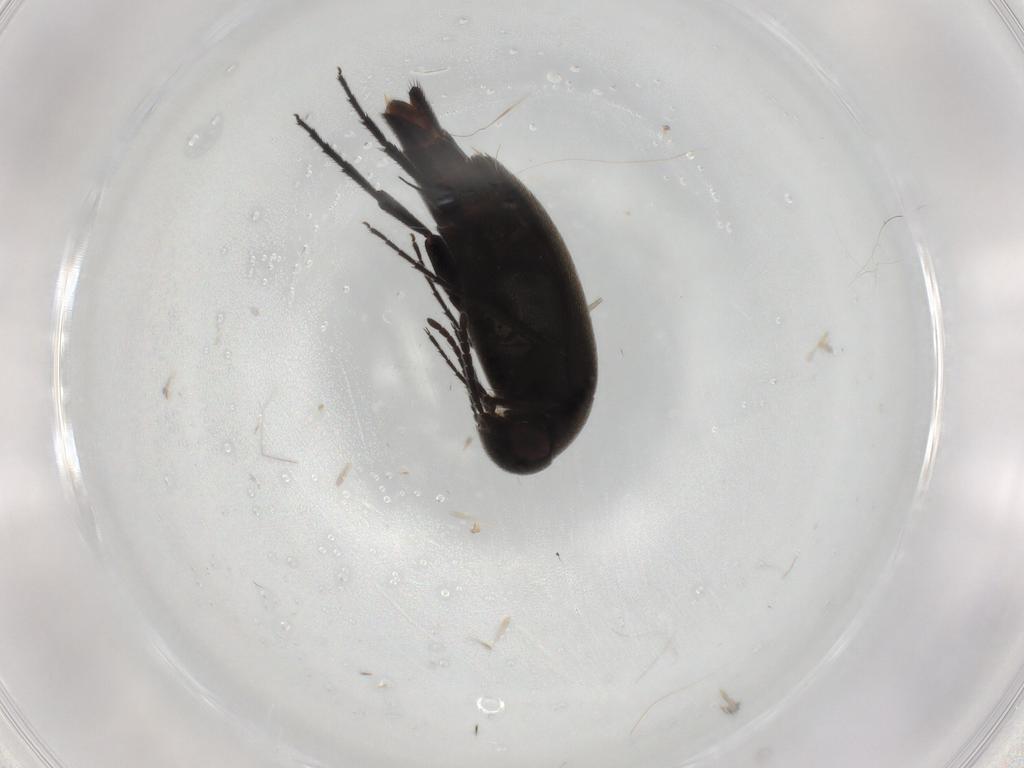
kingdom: Animalia
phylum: Arthropoda
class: Insecta
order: Coleoptera
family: Mordellidae
